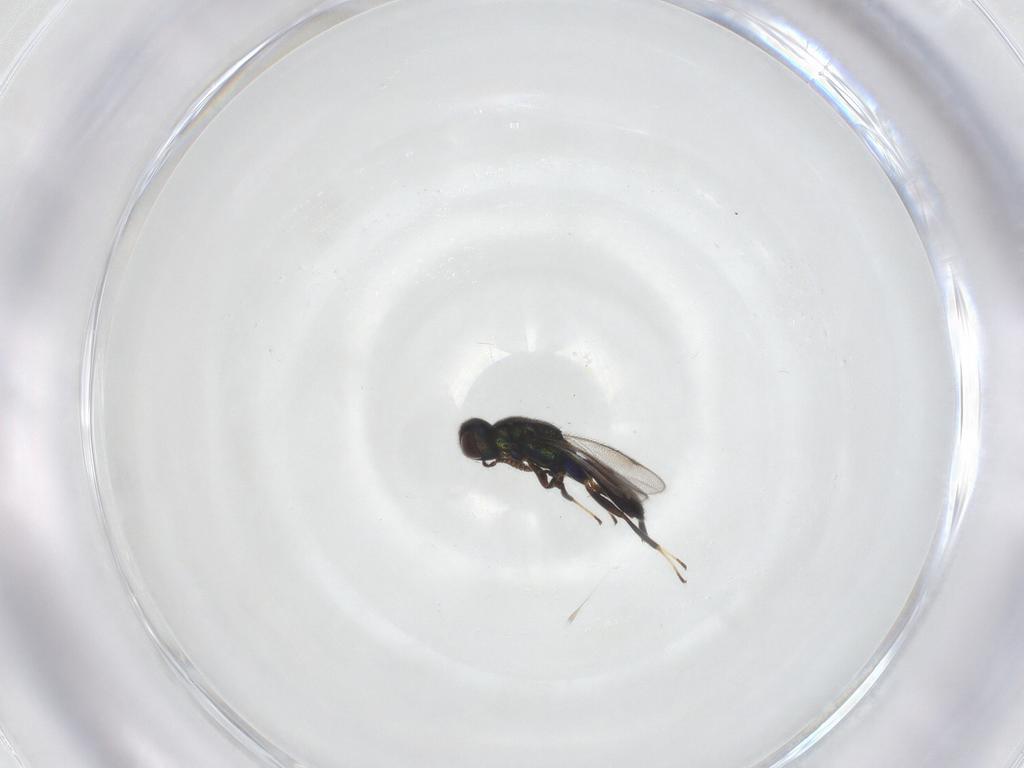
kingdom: Animalia
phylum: Arthropoda
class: Insecta
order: Hymenoptera
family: Cleonyminae
